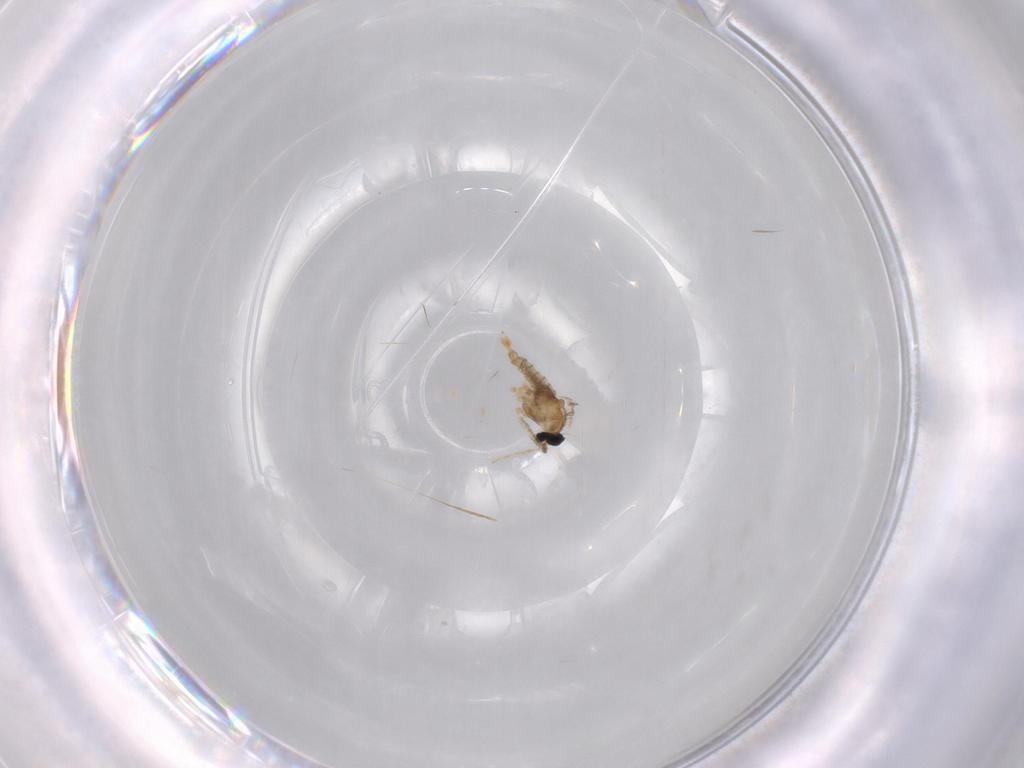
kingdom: Animalia
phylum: Arthropoda
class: Insecta
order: Diptera
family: Cecidomyiidae
